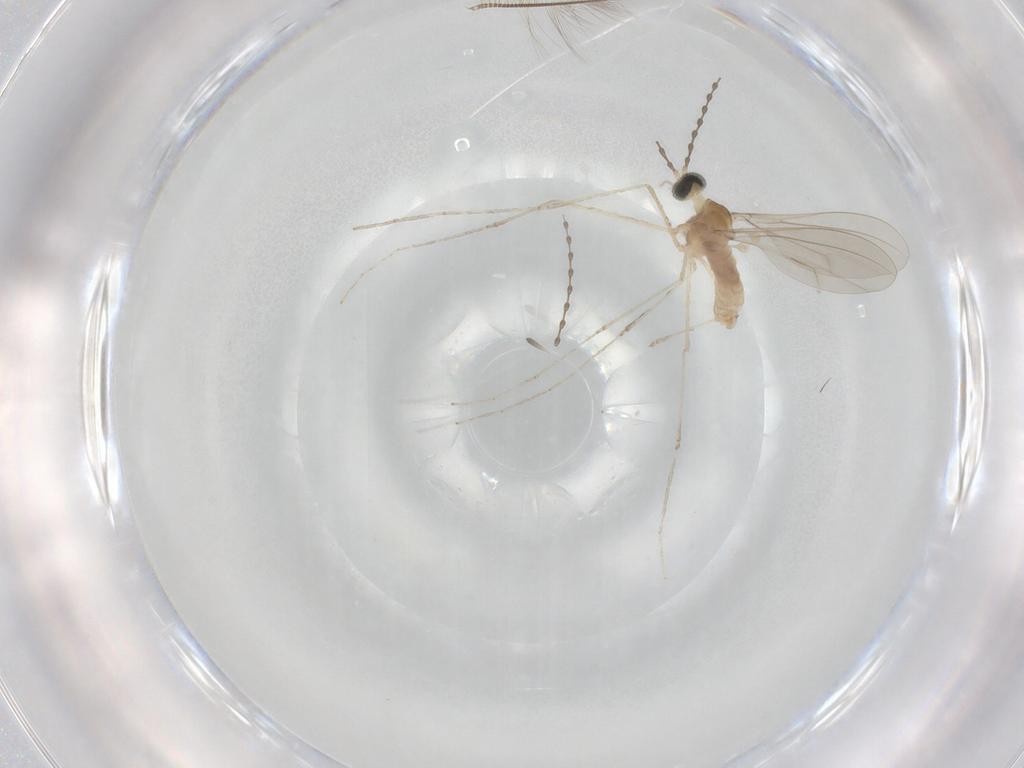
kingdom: Animalia
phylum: Arthropoda
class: Insecta
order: Diptera
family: Cecidomyiidae
